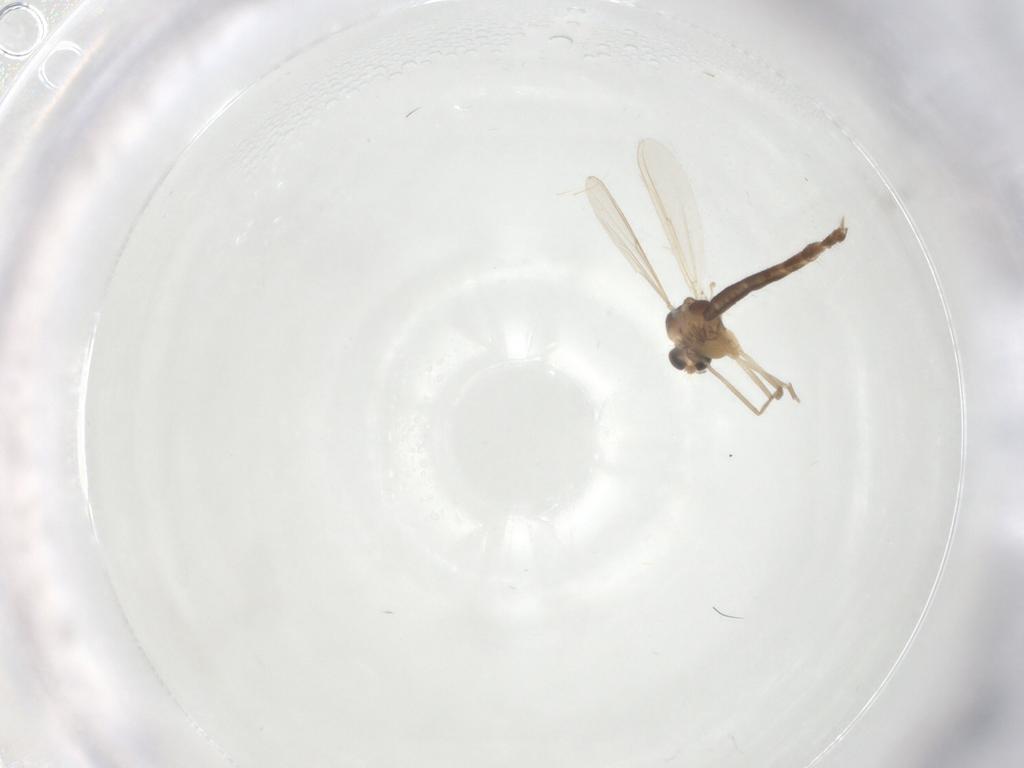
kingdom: Animalia
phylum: Arthropoda
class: Insecta
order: Diptera
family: Chironomidae
